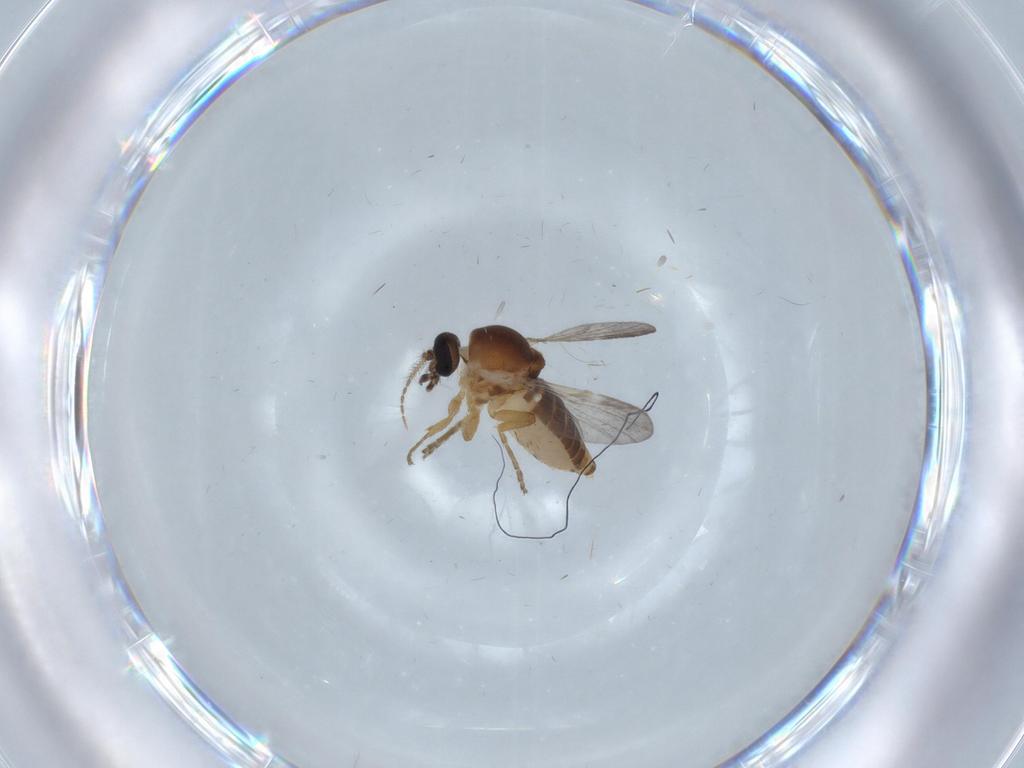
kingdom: Animalia
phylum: Arthropoda
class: Insecta
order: Diptera
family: Ceratopogonidae
